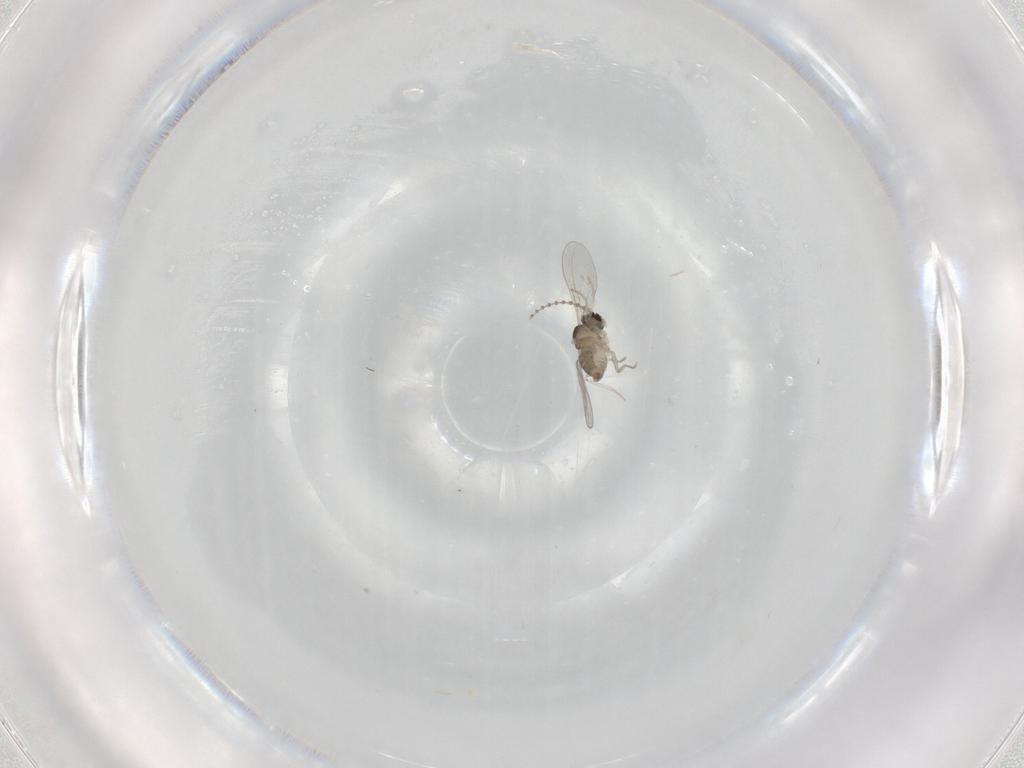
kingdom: Animalia
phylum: Arthropoda
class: Insecta
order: Diptera
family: Cecidomyiidae
